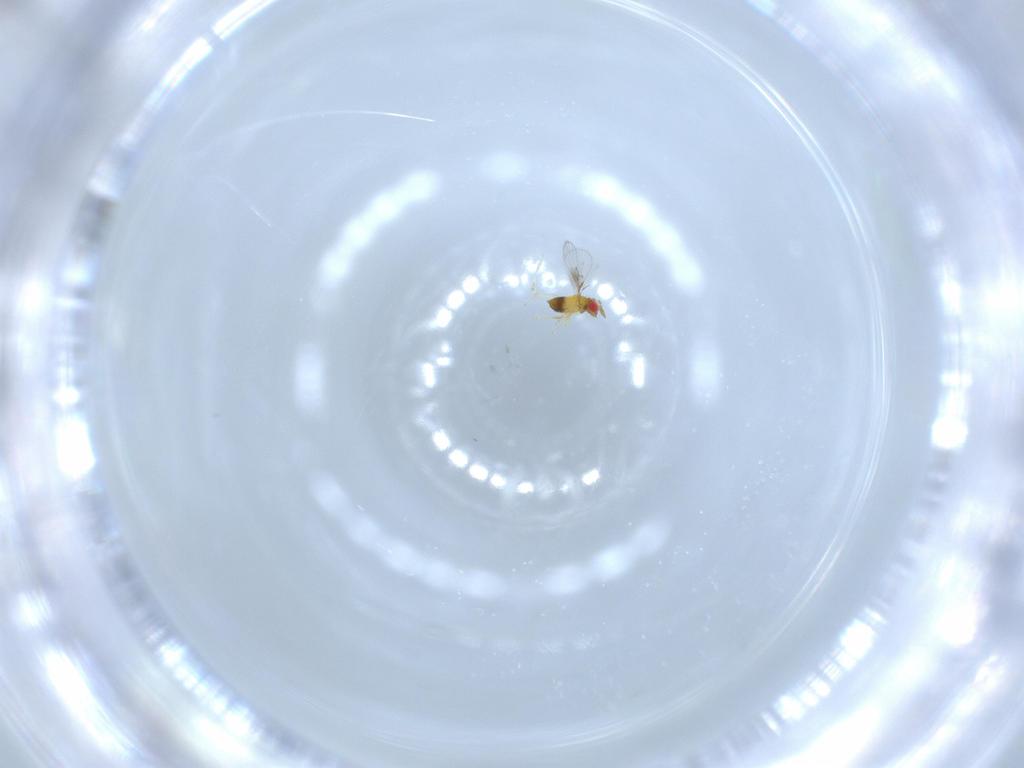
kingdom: Animalia
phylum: Arthropoda
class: Insecta
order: Hymenoptera
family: Trichogrammatidae
